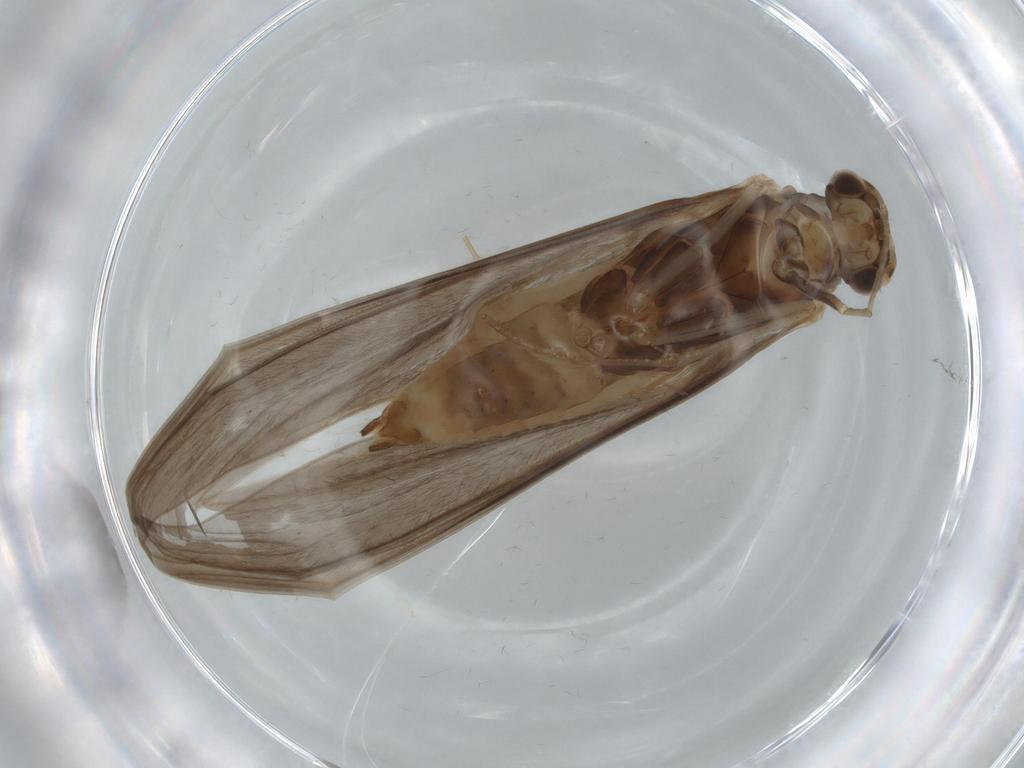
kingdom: Animalia
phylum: Arthropoda
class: Insecta
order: Trichoptera
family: Leptoceridae
